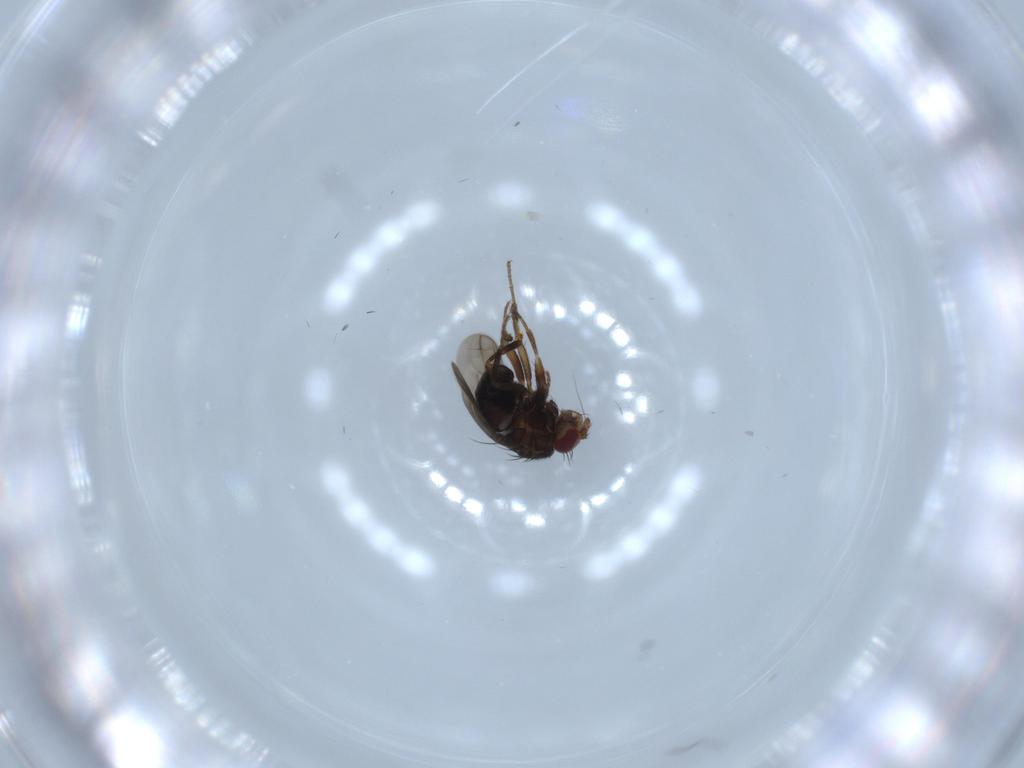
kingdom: Animalia
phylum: Arthropoda
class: Insecta
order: Diptera
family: Sphaeroceridae
